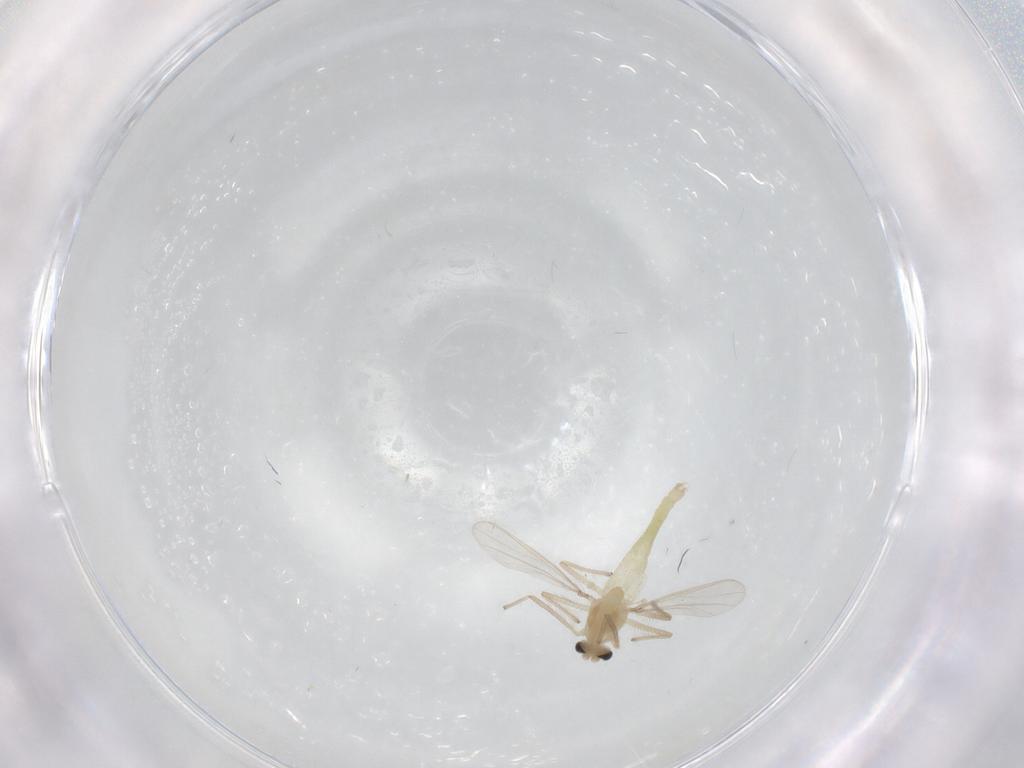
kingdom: Animalia
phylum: Arthropoda
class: Insecta
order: Diptera
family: Chironomidae
